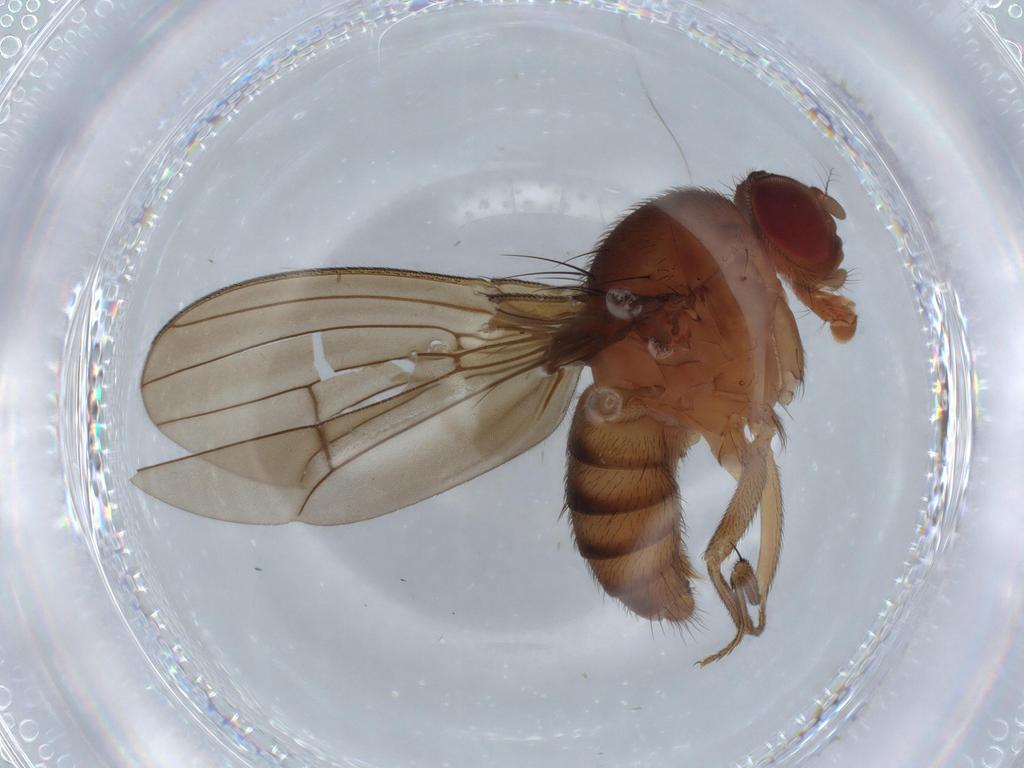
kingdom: Animalia
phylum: Arthropoda
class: Insecta
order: Diptera
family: Drosophilidae
